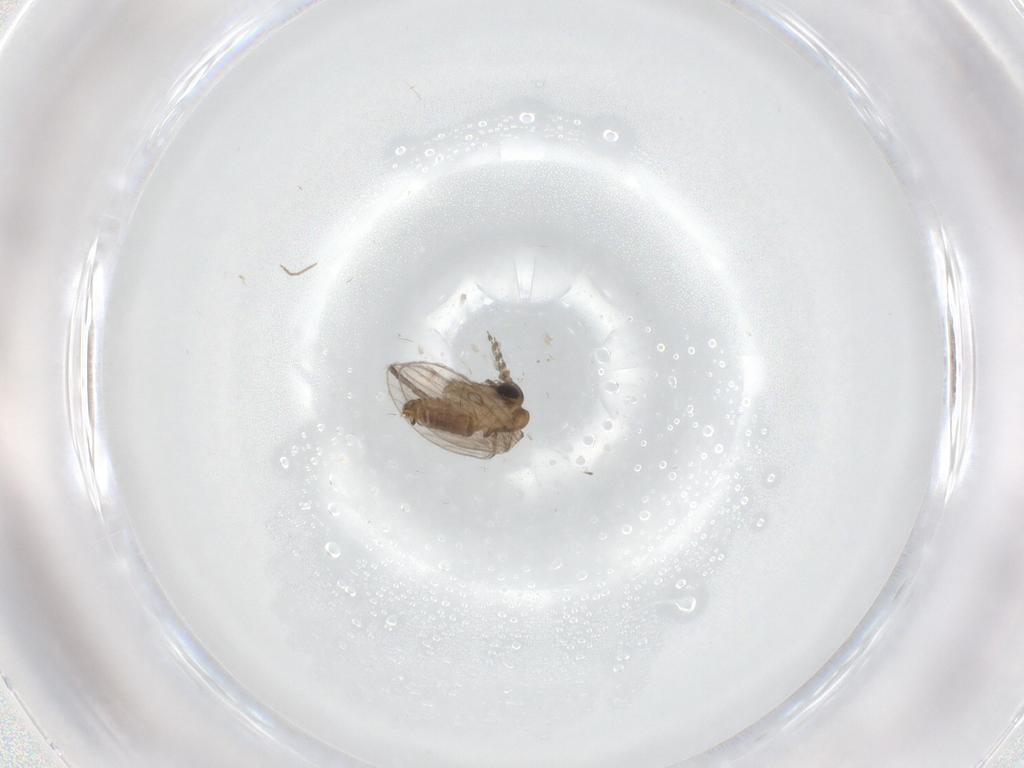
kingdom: Animalia
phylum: Arthropoda
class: Insecta
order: Diptera
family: Psychodidae
